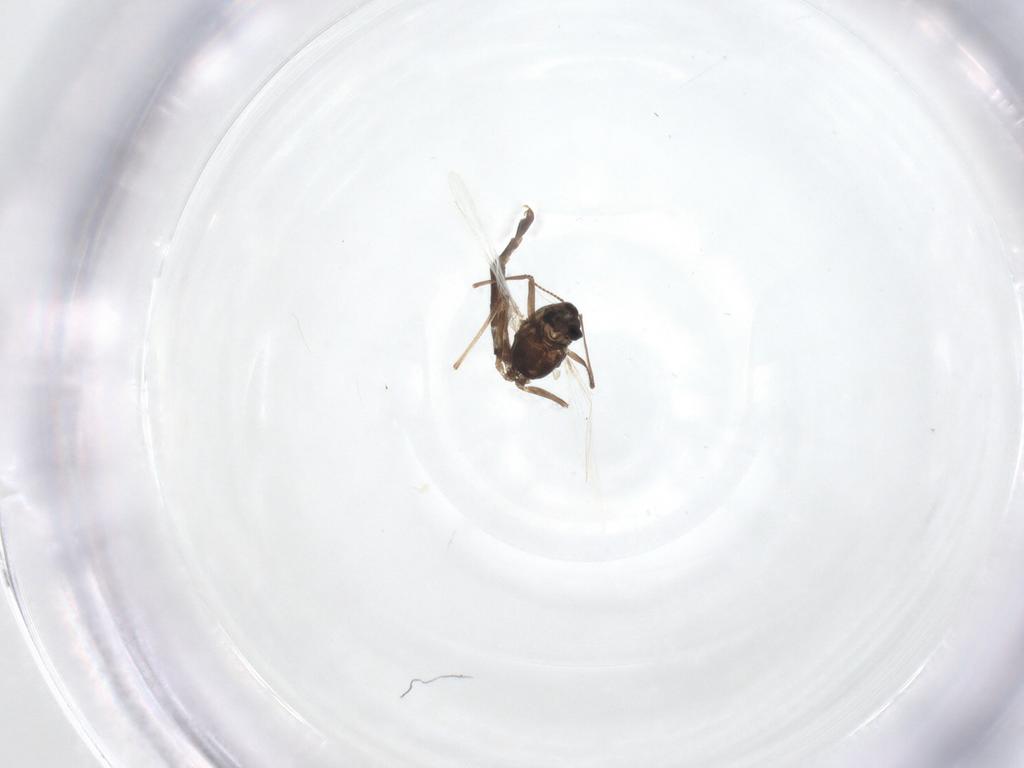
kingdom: Animalia
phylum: Arthropoda
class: Insecta
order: Diptera
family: Chironomidae
